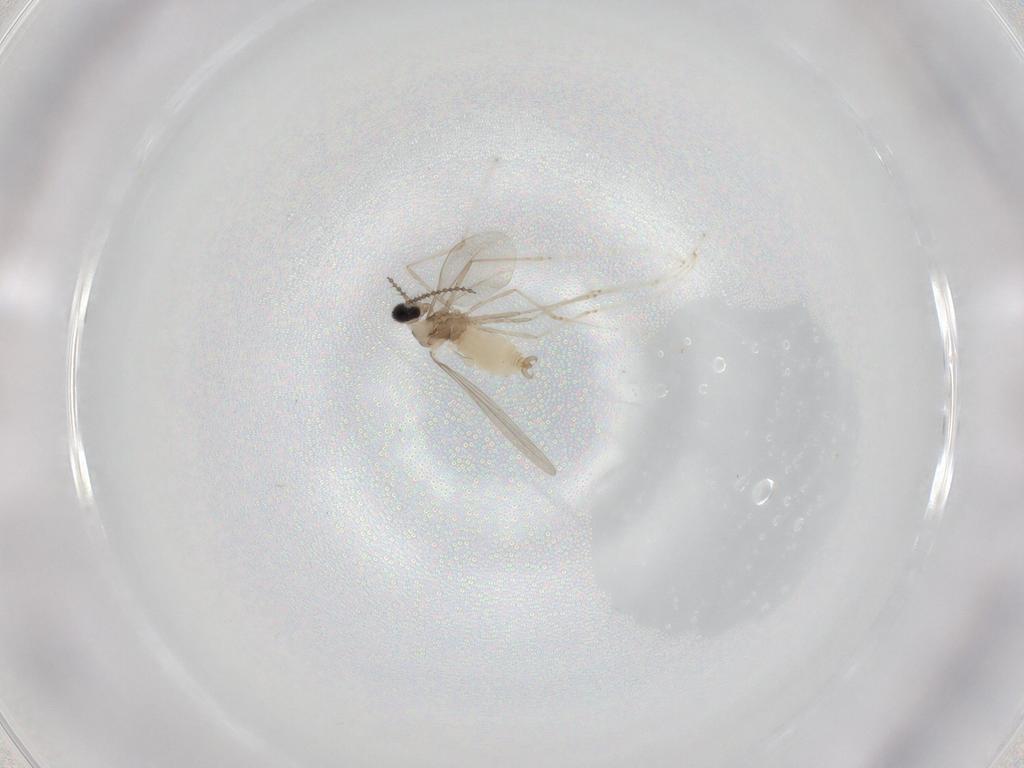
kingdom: Animalia
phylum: Arthropoda
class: Insecta
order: Diptera
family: Cecidomyiidae
